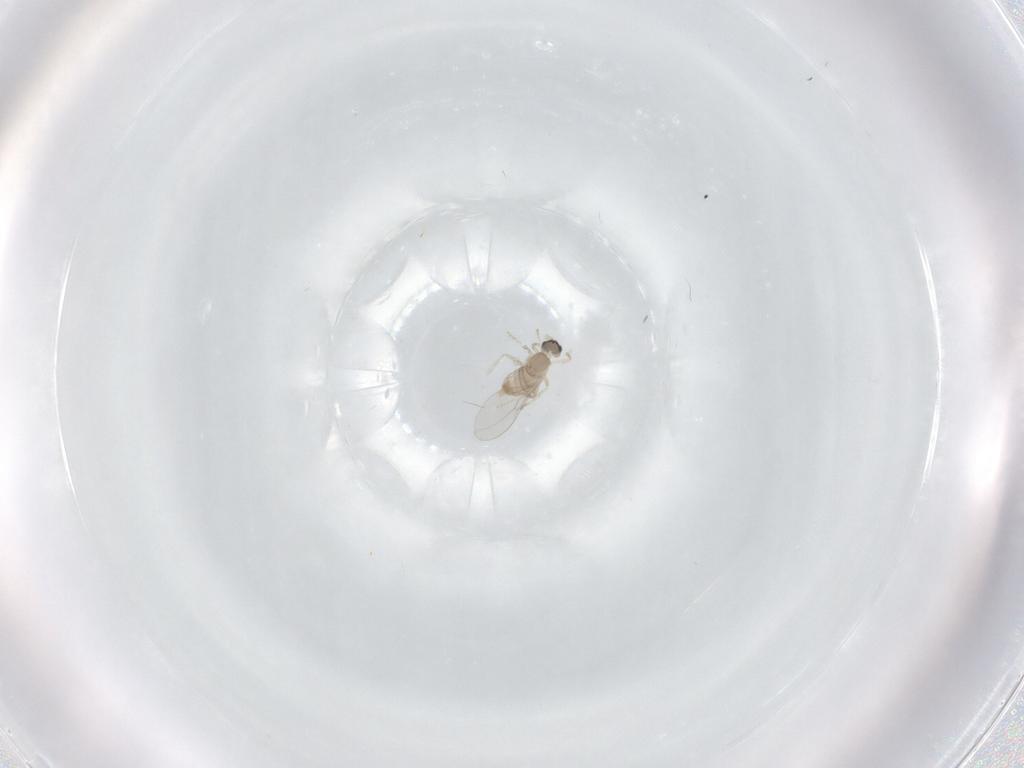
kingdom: Animalia
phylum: Arthropoda
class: Insecta
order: Diptera
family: Cecidomyiidae
